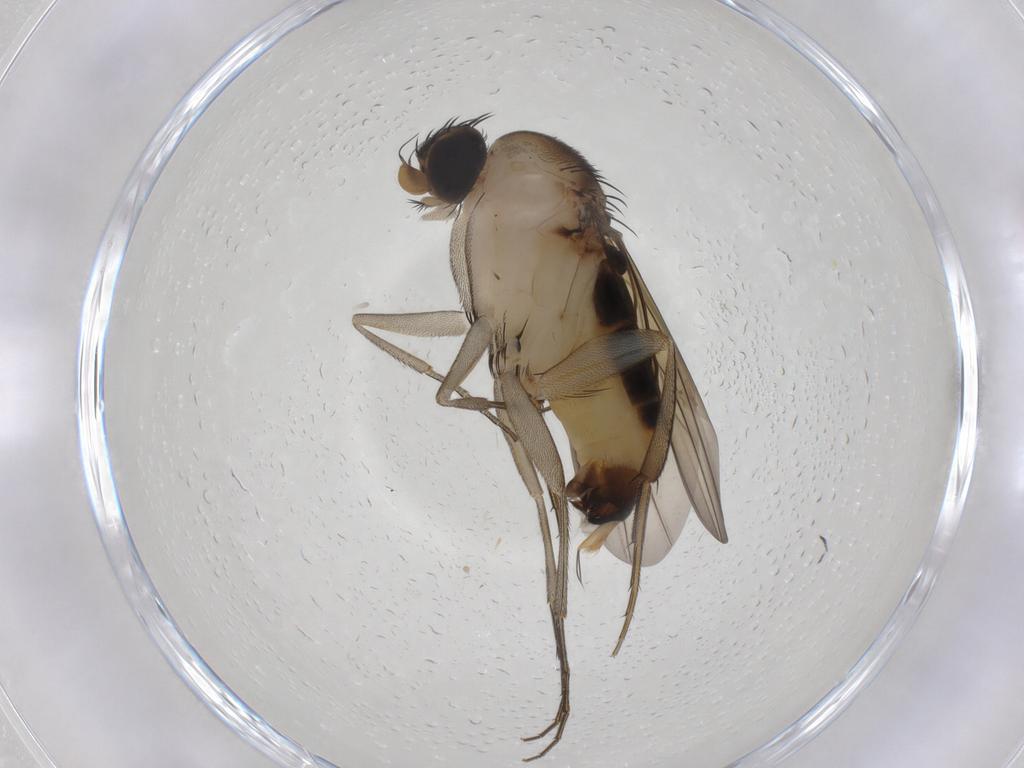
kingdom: Animalia
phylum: Arthropoda
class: Insecta
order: Diptera
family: Phoridae
